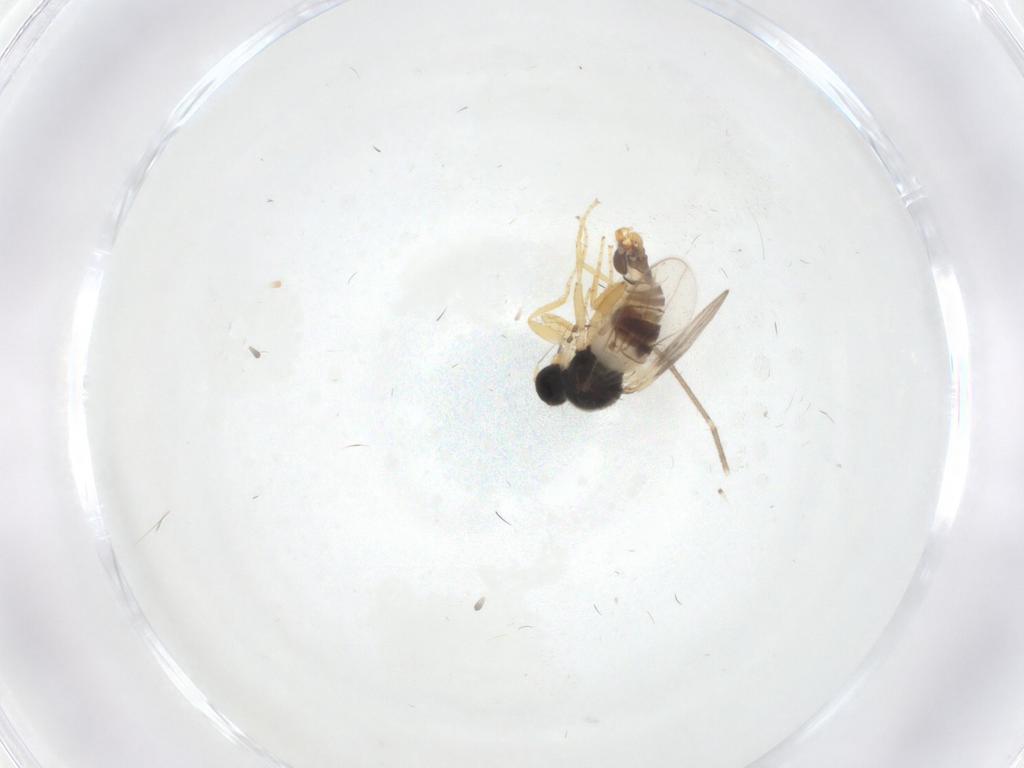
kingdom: Animalia
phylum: Arthropoda
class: Insecta
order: Diptera
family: Hybotidae
